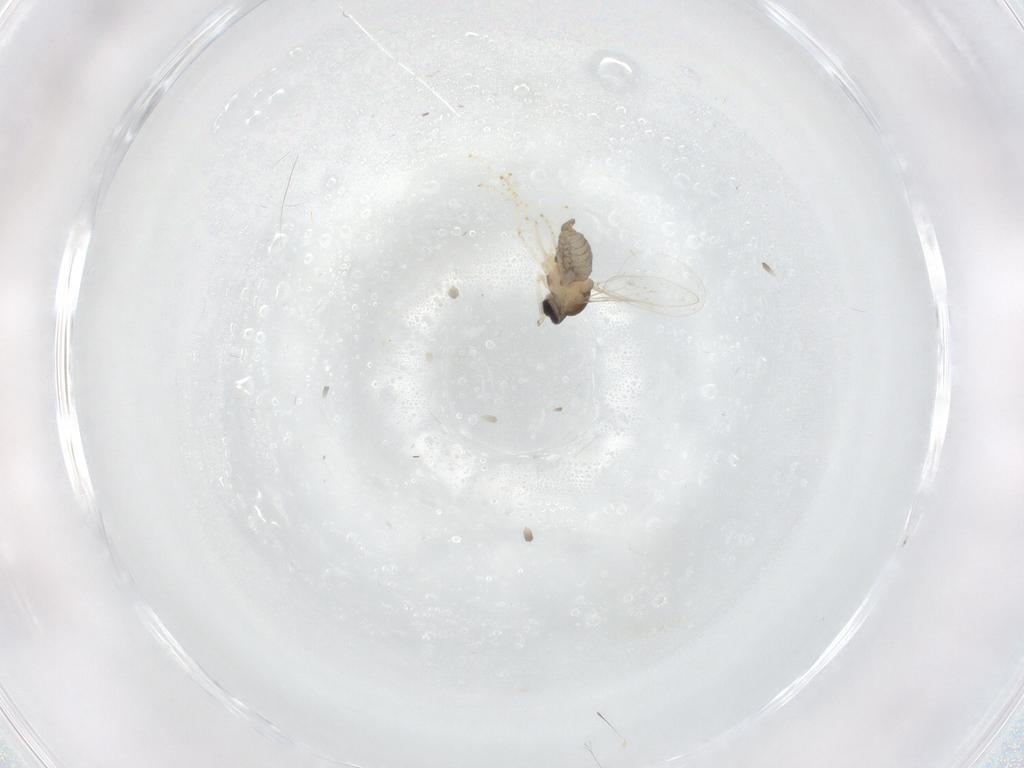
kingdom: Animalia
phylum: Arthropoda
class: Insecta
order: Diptera
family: Cecidomyiidae
